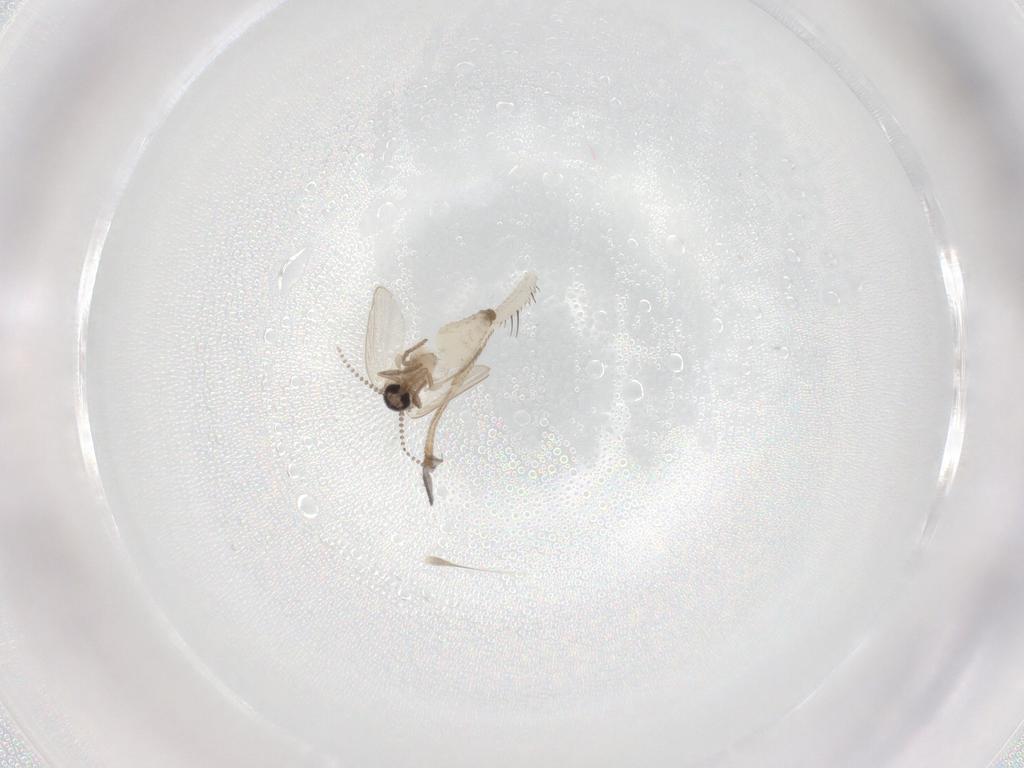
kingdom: Animalia
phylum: Arthropoda
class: Insecta
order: Diptera
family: Lauxaniidae
